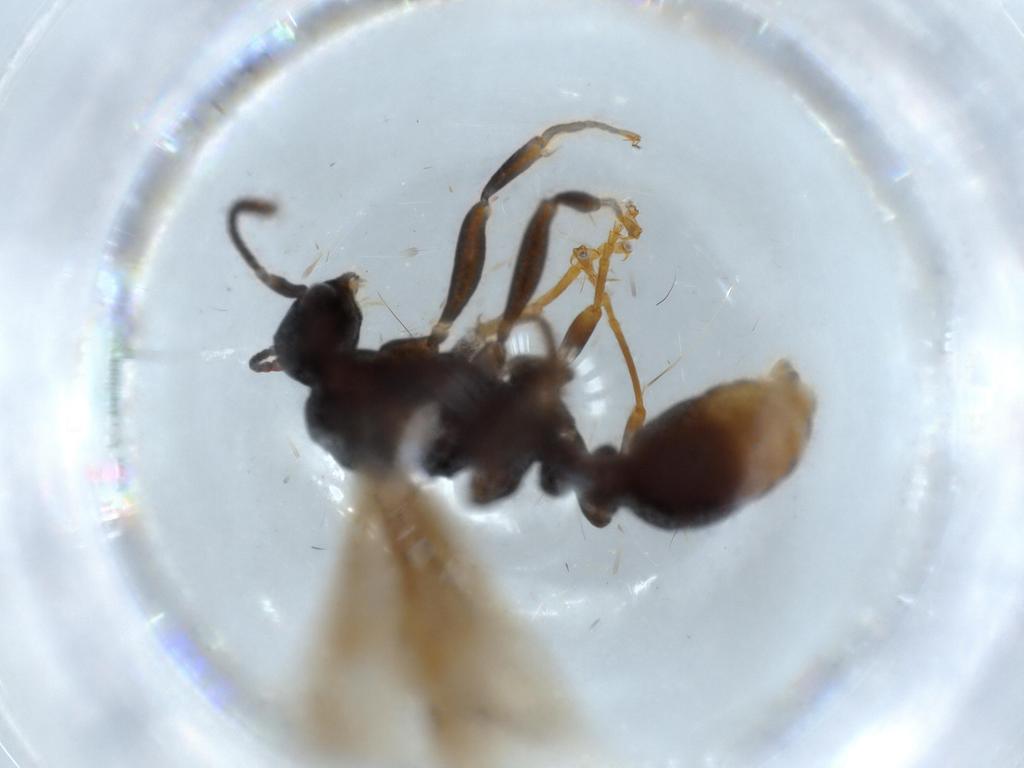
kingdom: Animalia
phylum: Arthropoda
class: Insecta
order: Hymenoptera
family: Formicidae
